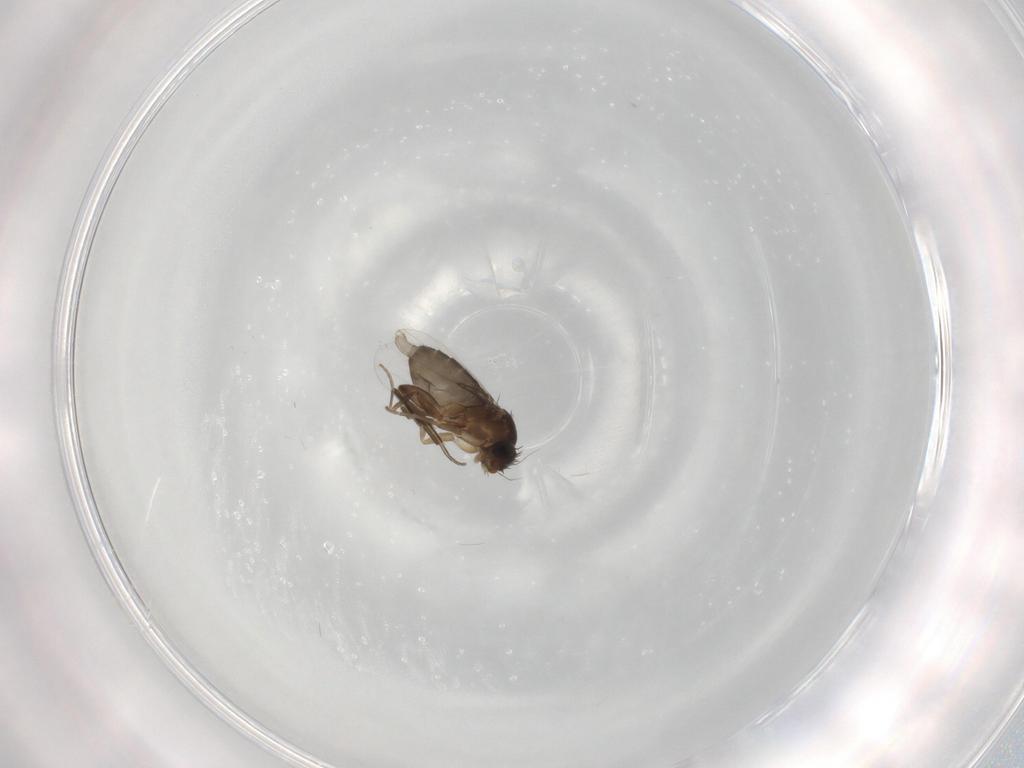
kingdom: Animalia
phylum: Arthropoda
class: Insecta
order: Diptera
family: Phoridae
